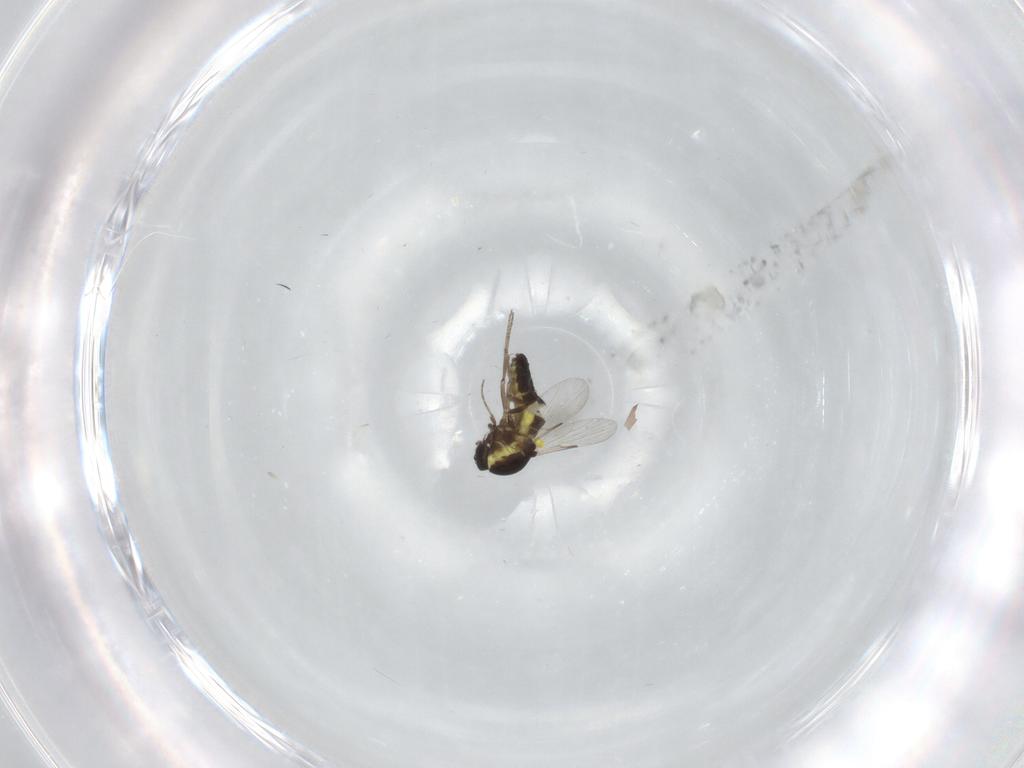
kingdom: Animalia
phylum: Arthropoda
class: Insecta
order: Diptera
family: Ceratopogonidae
